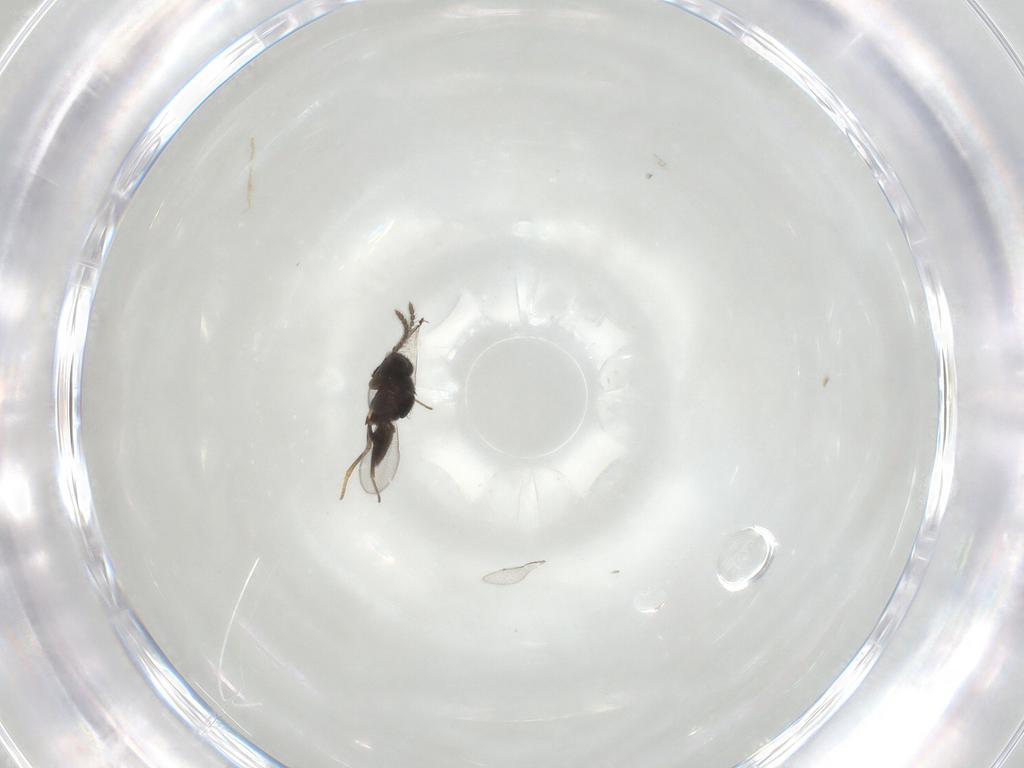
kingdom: Animalia
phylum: Arthropoda
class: Insecta
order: Hymenoptera
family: Encyrtidae
